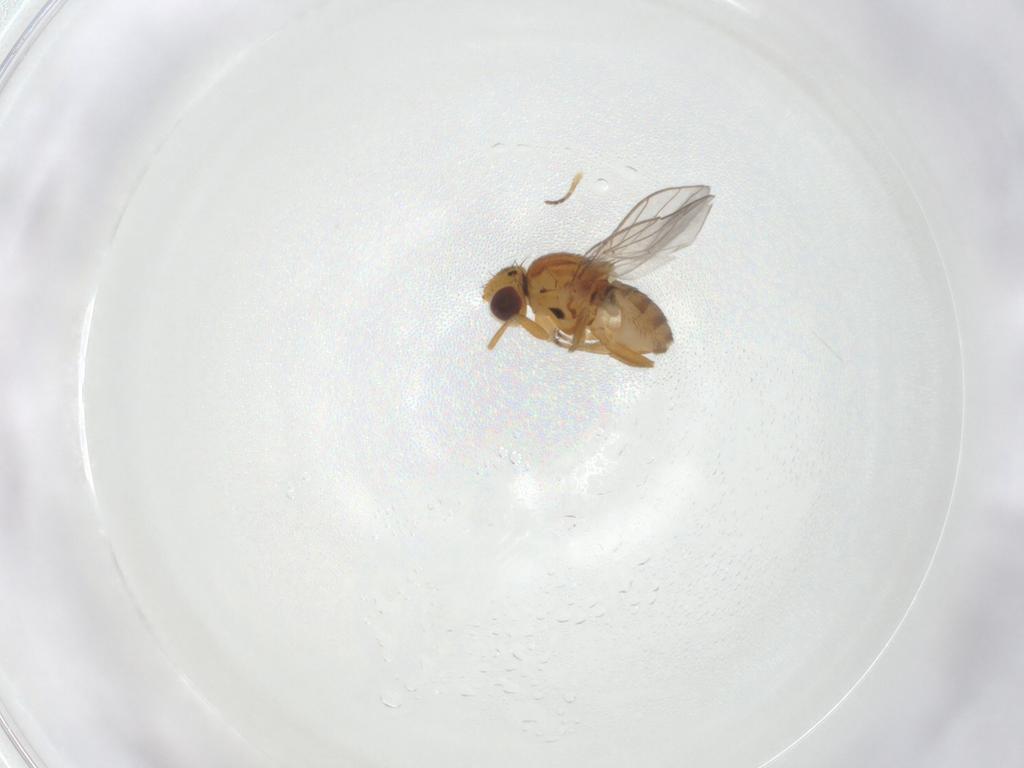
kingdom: Animalia
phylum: Arthropoda
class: Insecta
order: Diptera
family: Chloropidae
